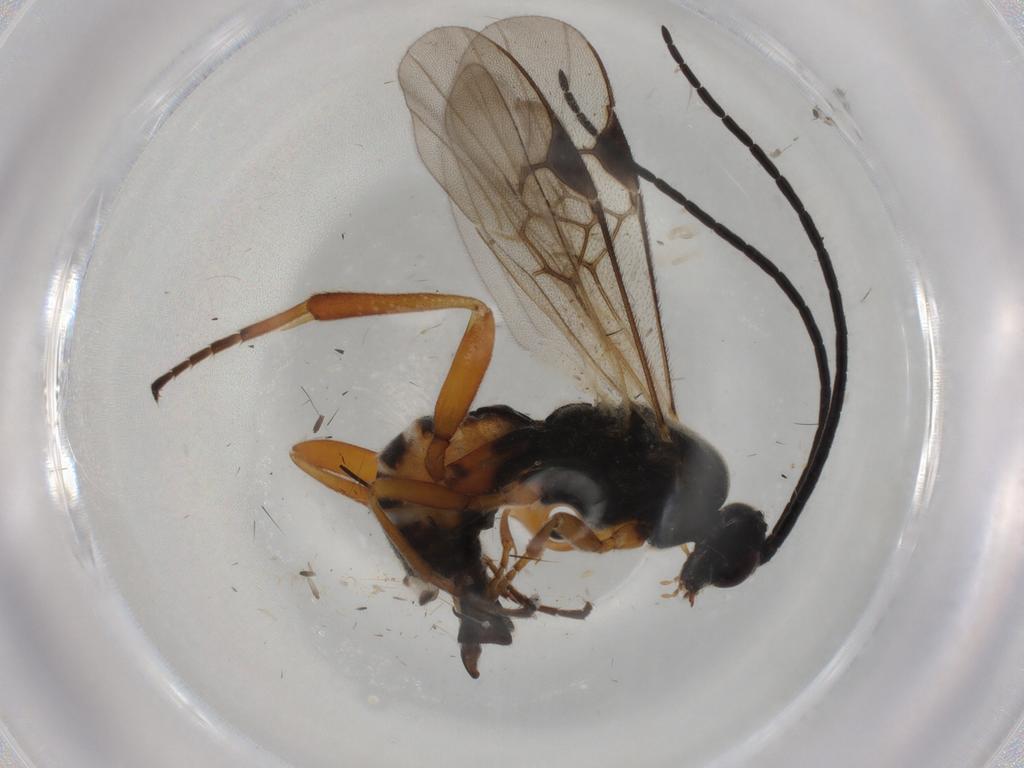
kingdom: Animalia
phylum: Arthropoda
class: Insecta
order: Lepidoptera
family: Tortricidae
